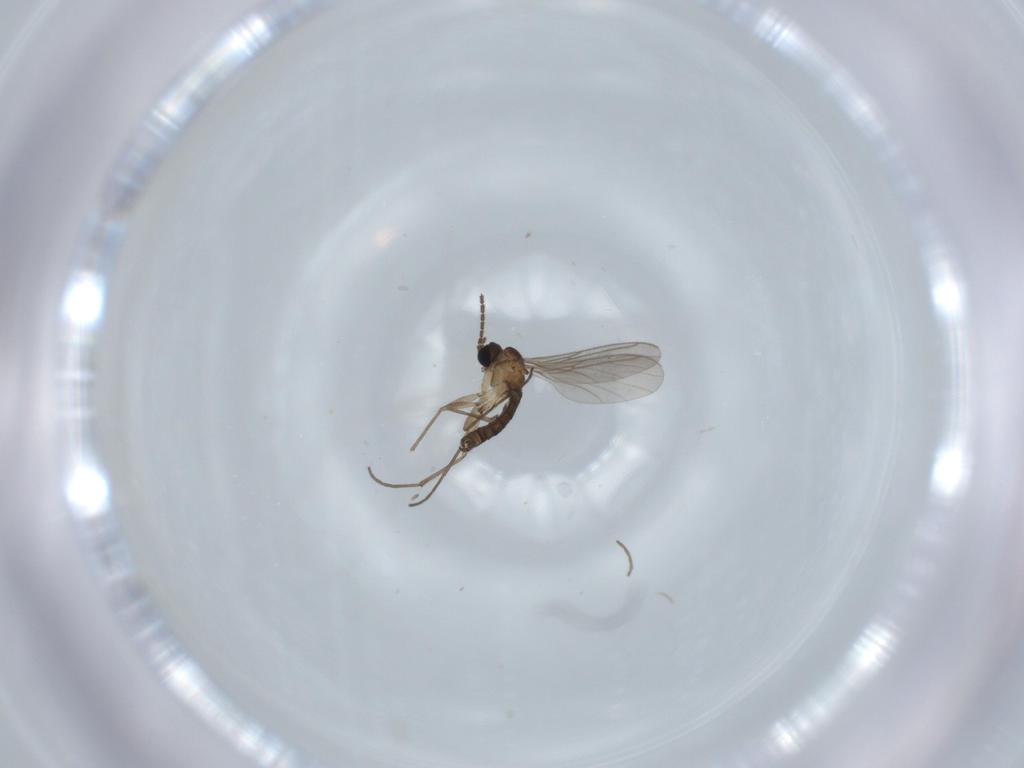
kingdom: Animalia
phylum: Arthropoda
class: Insecta
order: Diptera
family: Sciaridae
